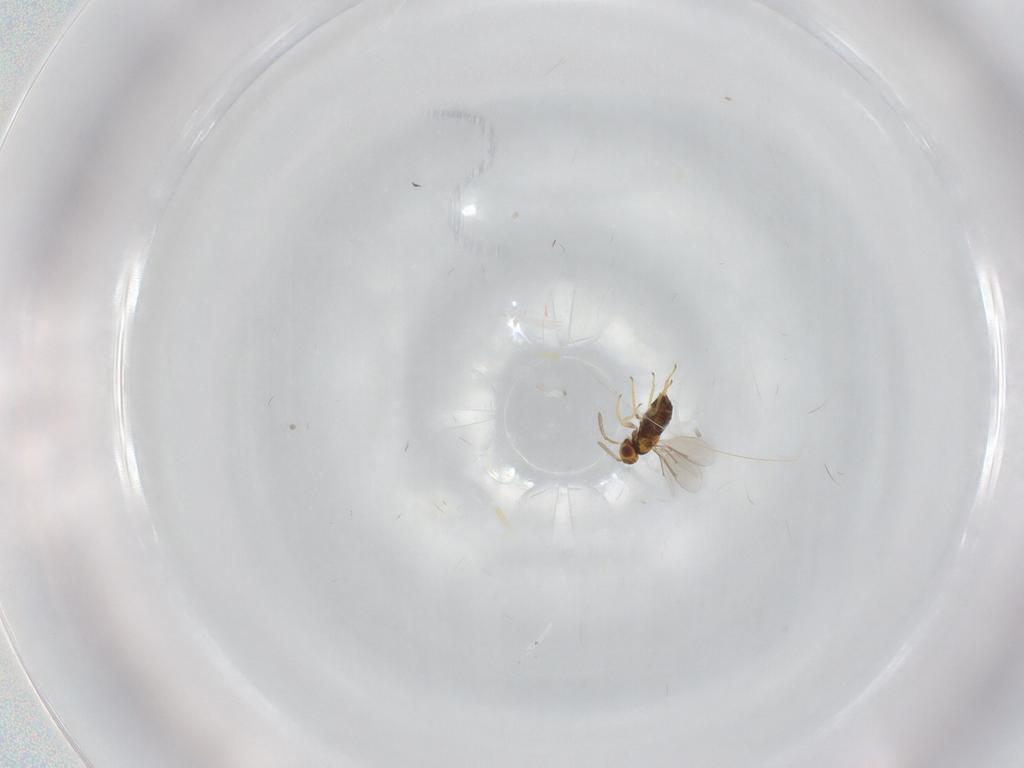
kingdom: Animalia
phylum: Arthropoda
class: Insecta
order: Hymenoptera
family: Aphelinidae
